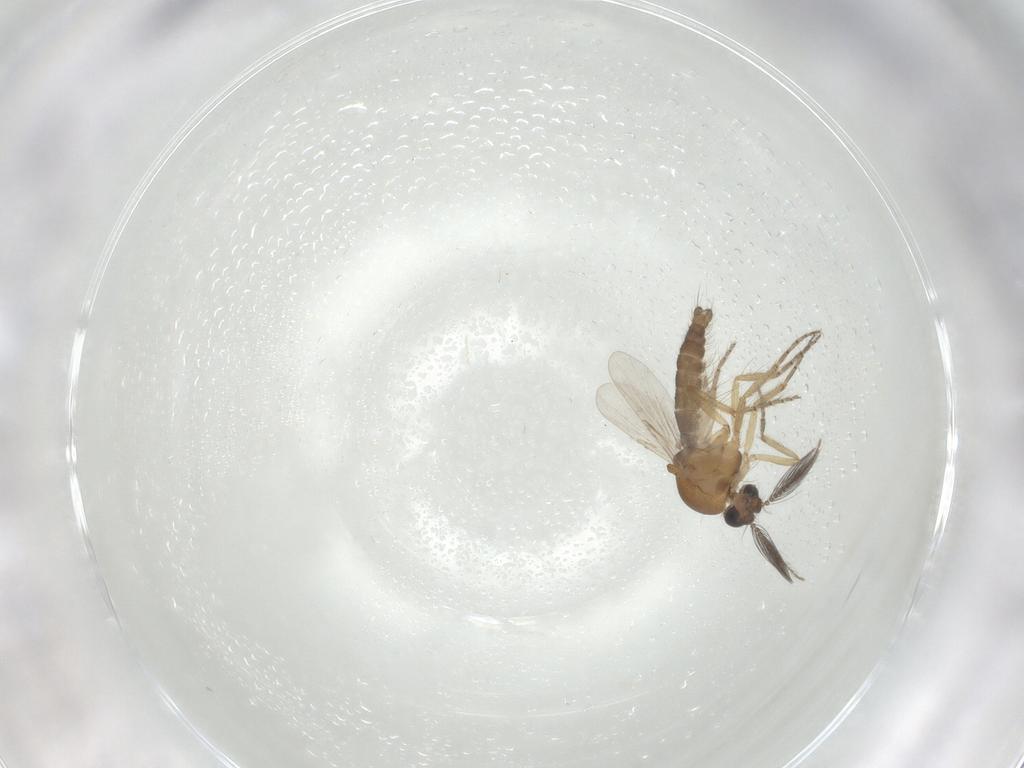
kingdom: Animalia
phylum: Arthropoda
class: Insecta
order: Diptera
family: Ceratopogonidae
